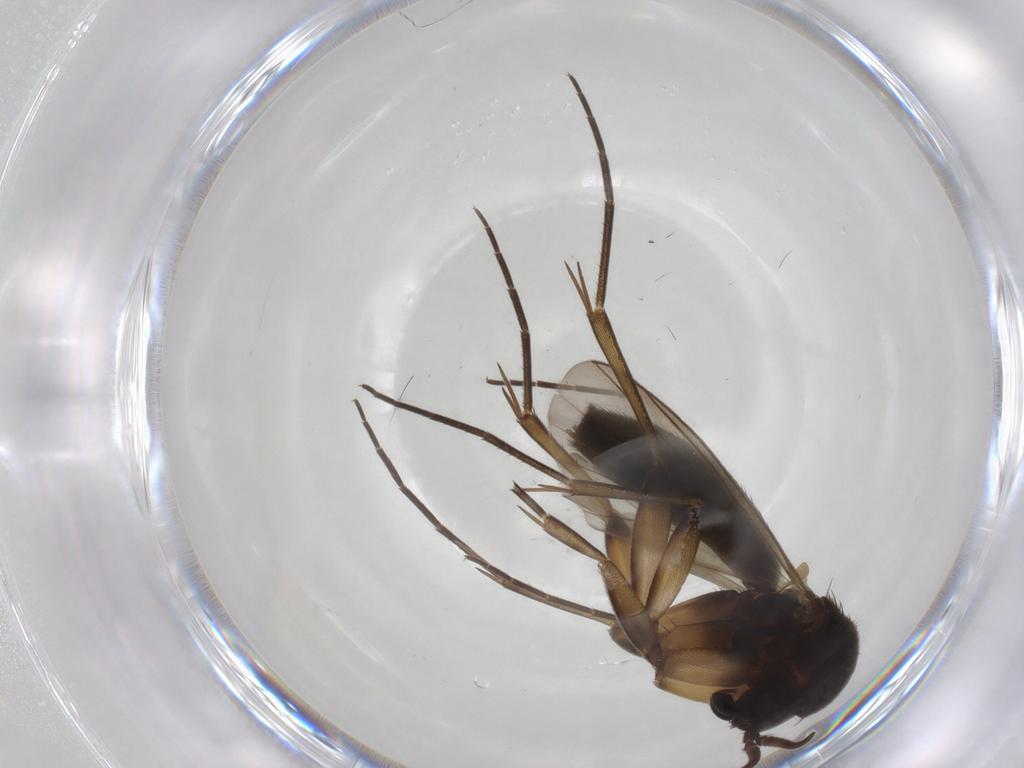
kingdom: Animalia
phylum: Arthropoda
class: Insecta
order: Diptera
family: Mycetophilidae
